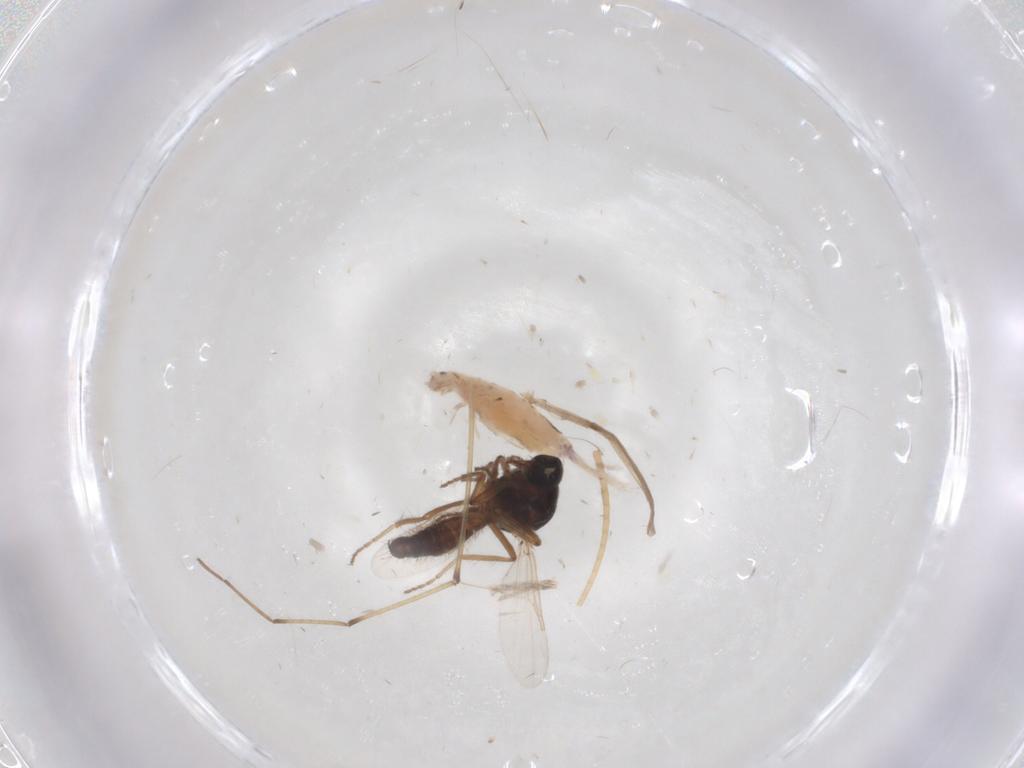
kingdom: Animalia
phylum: Arthropoda
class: Insecta
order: Diptera
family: Ceratopogonidae
